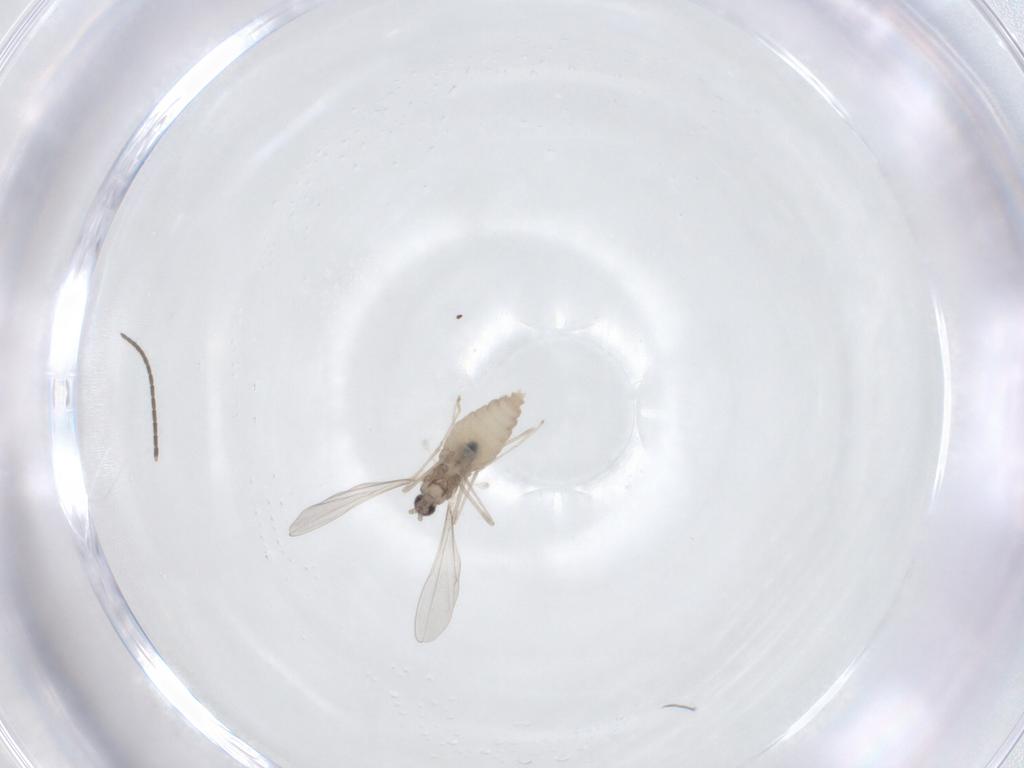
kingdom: Animalia
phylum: Arthropoda
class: Insecta
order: Diptera
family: Cecidomyiidae
